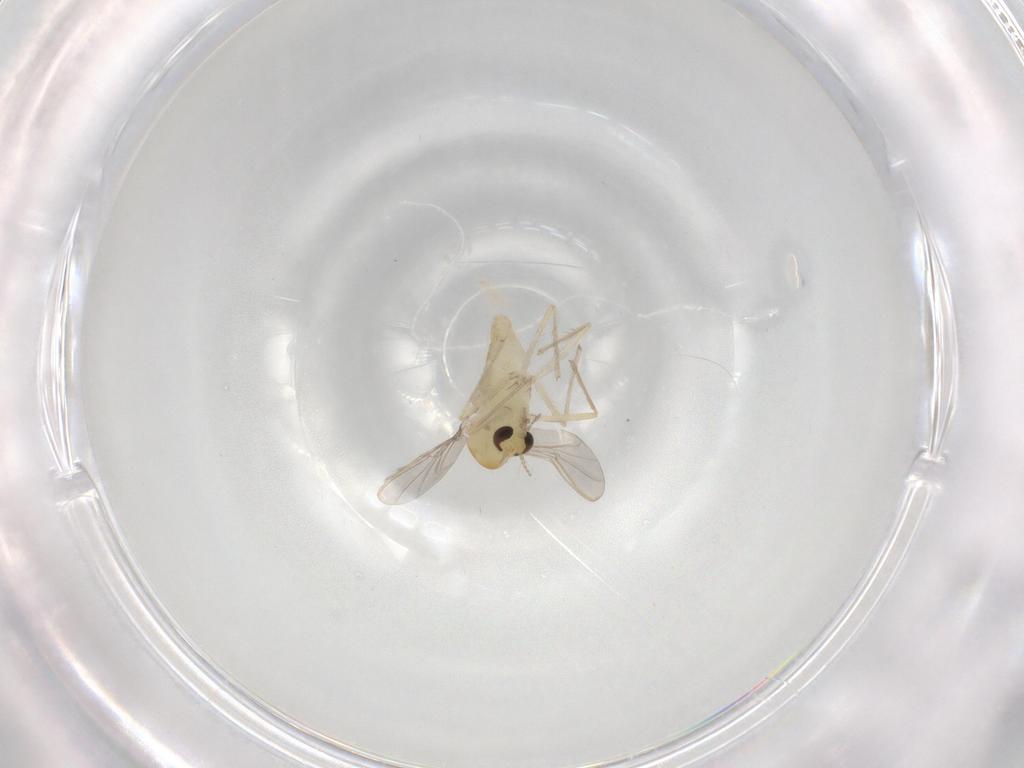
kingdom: Animalia
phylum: Arthropoda
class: Insecta
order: Diptera
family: Chironomidae
